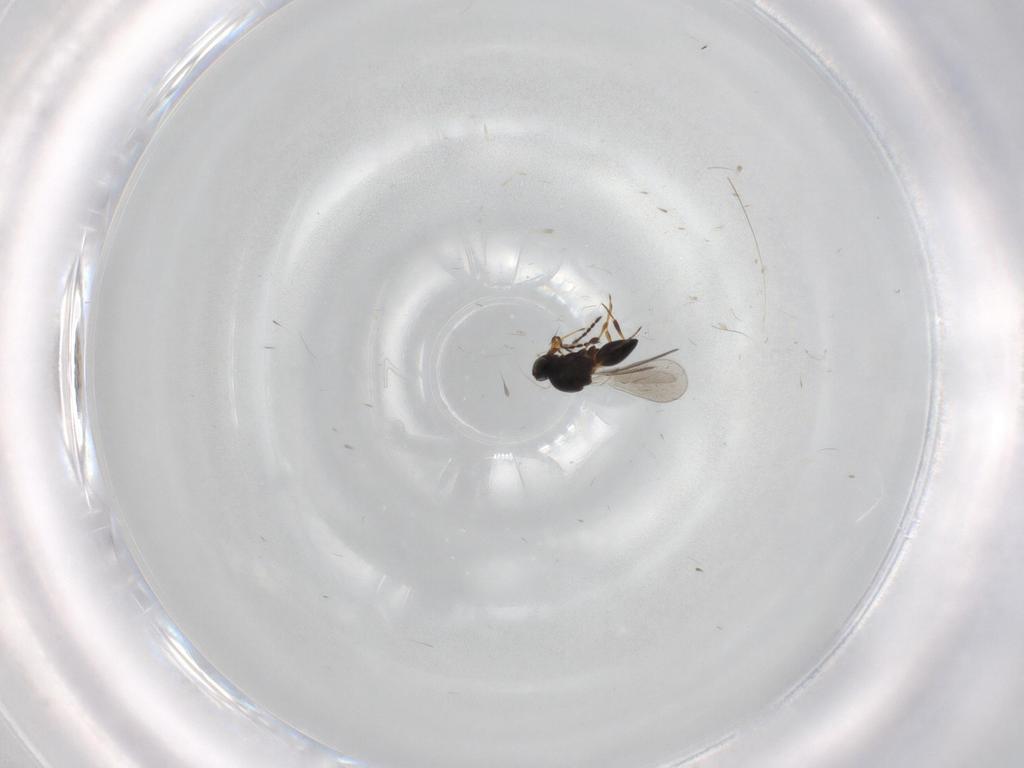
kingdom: Animalia
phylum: Arthropoda
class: Insecta
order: Hymenoptera
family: Platygastridae
